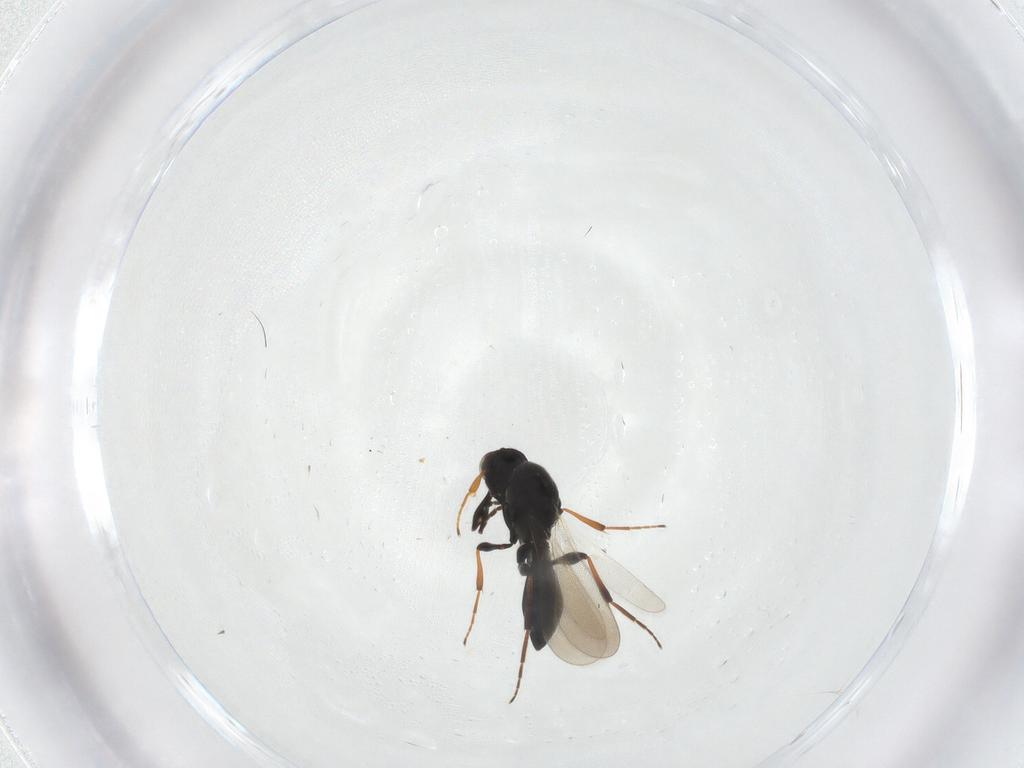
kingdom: Animalia
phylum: Arthropoda
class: Insecta
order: Hymenoptera
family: Platygastridae
